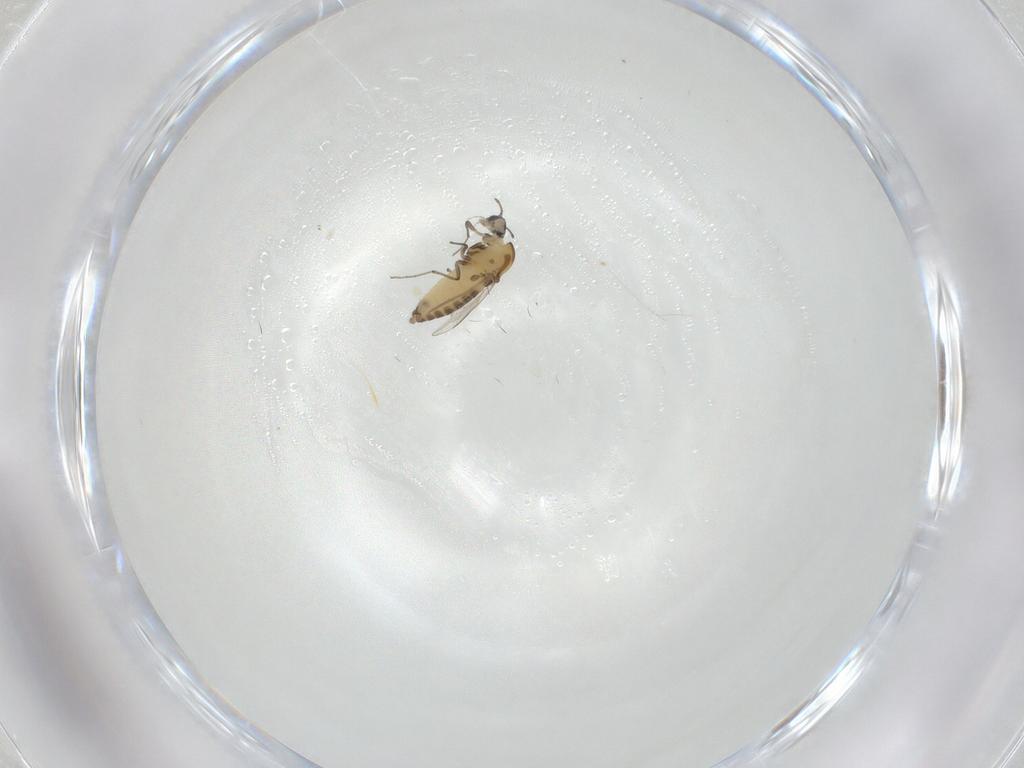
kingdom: Animalia
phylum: Arthropoda
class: Insecta
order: Diptera
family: Chironomidae
